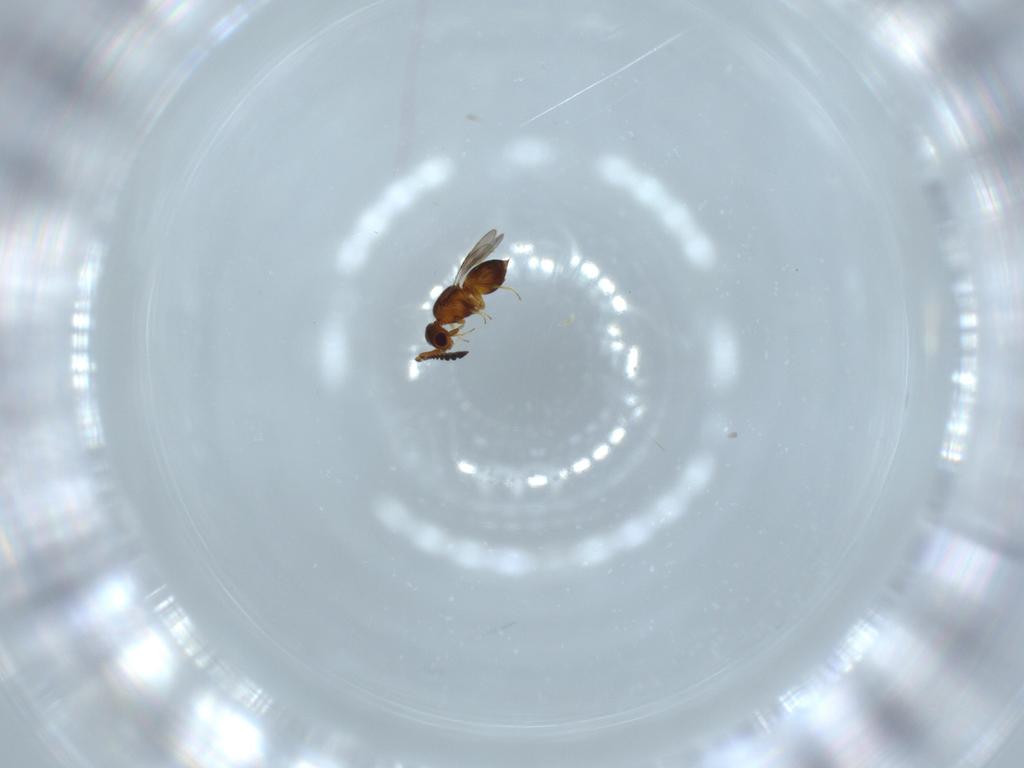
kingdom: Animalia
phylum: Arthropoda
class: Insecta
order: Hymenoptera
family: Ceraphronidae
